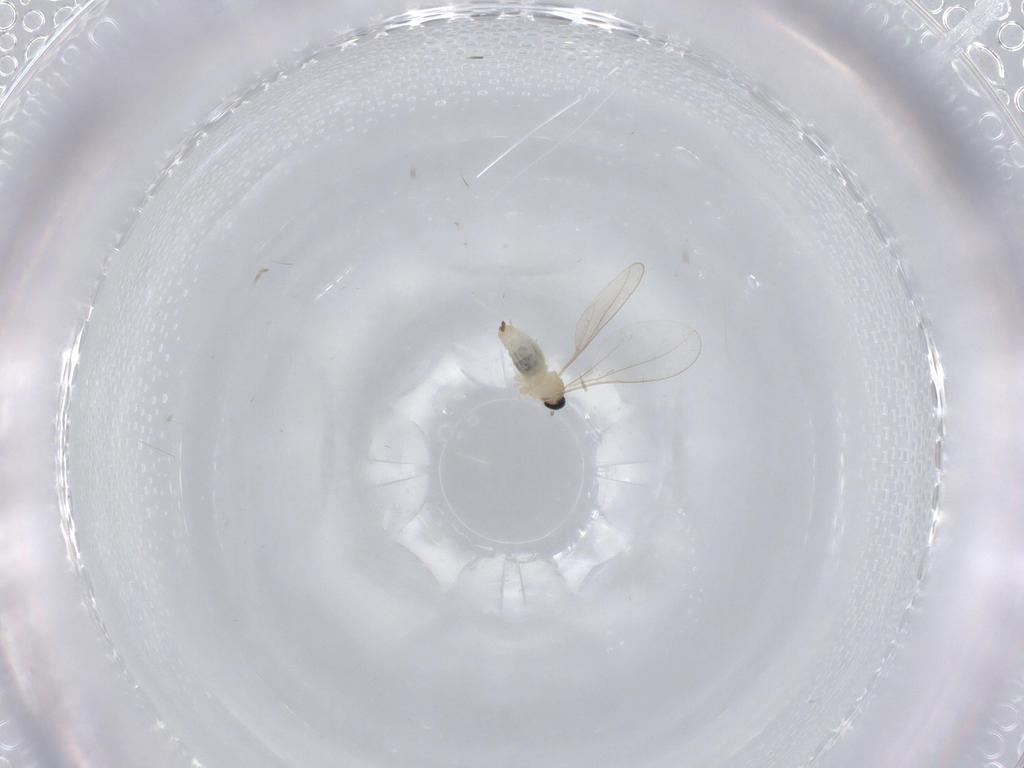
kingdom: Animalia
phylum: Arthropoda
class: Insecta
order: Diptera
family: Cecidomyiidae
